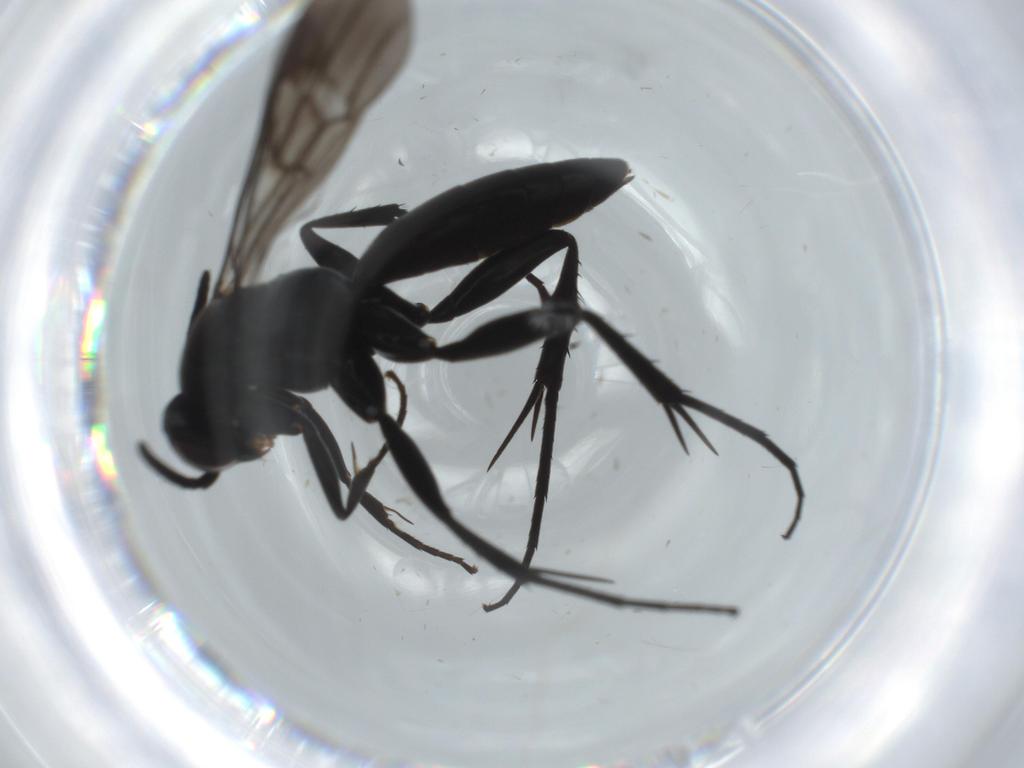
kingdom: Animalia
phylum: Arthropoda
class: Insecta
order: Hymenoptera
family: Pompilidae
